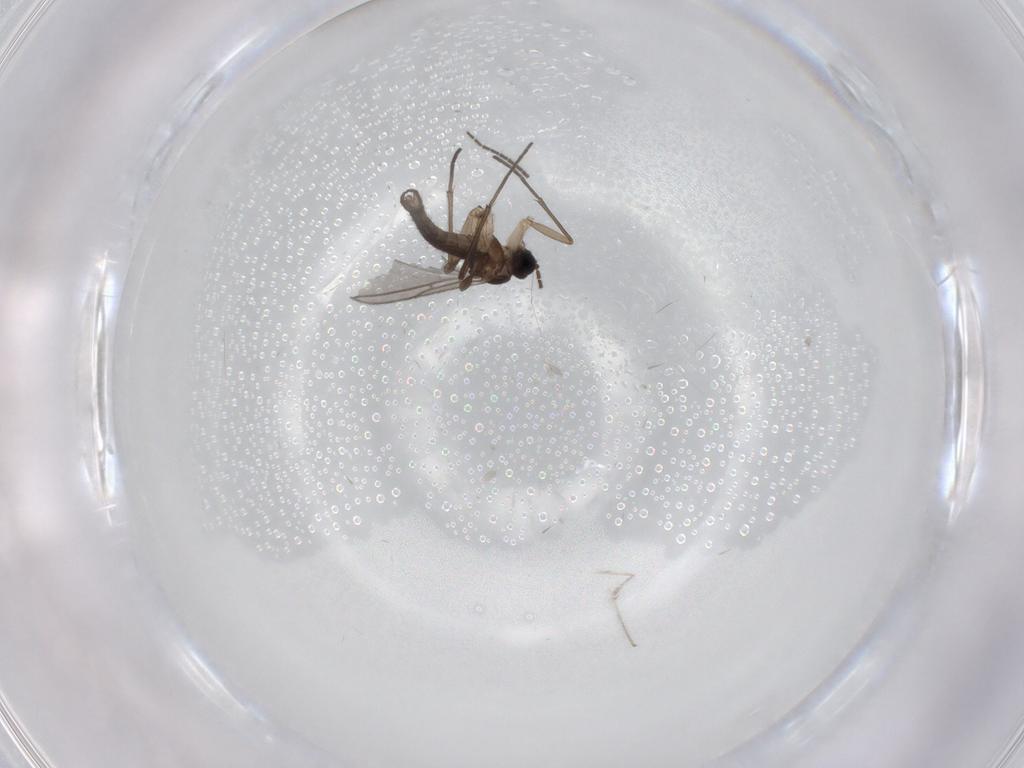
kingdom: Animalia
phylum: Arthropoda
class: Insecta
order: Diptera
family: Sciaridae
